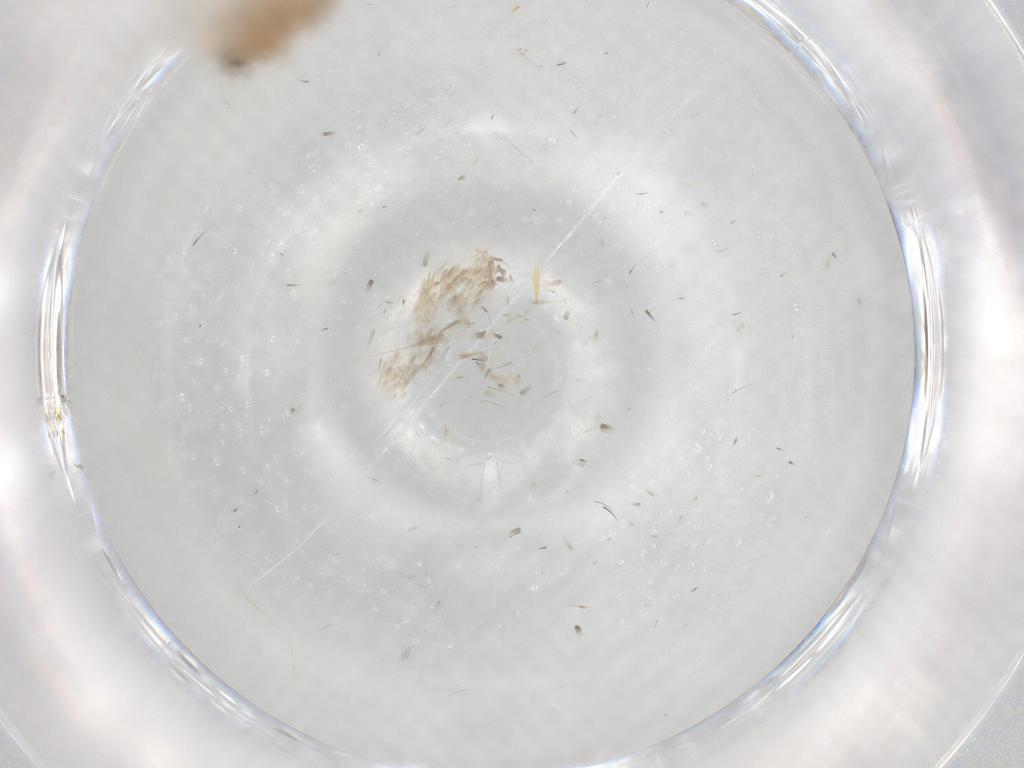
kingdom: Animalia
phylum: Arthropoda
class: Insecta
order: Lepidoptera
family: Lecithoceridae
